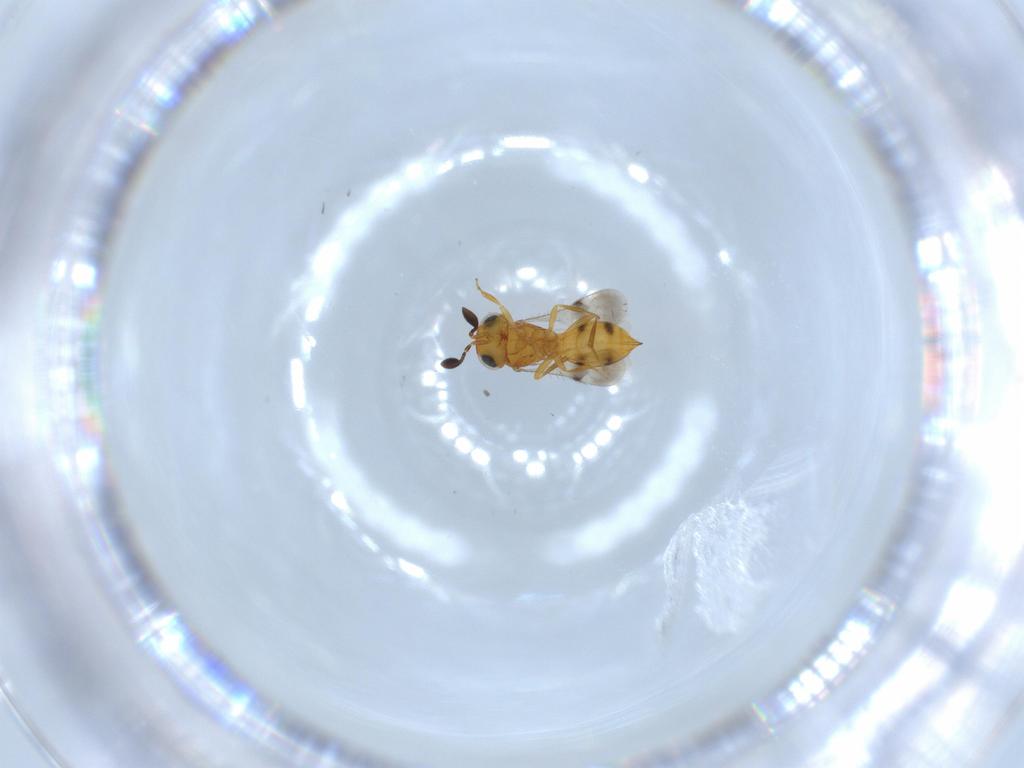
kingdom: Animalia
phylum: Arthropoda
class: Insecta
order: Hymenoptera
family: Scelionidae
